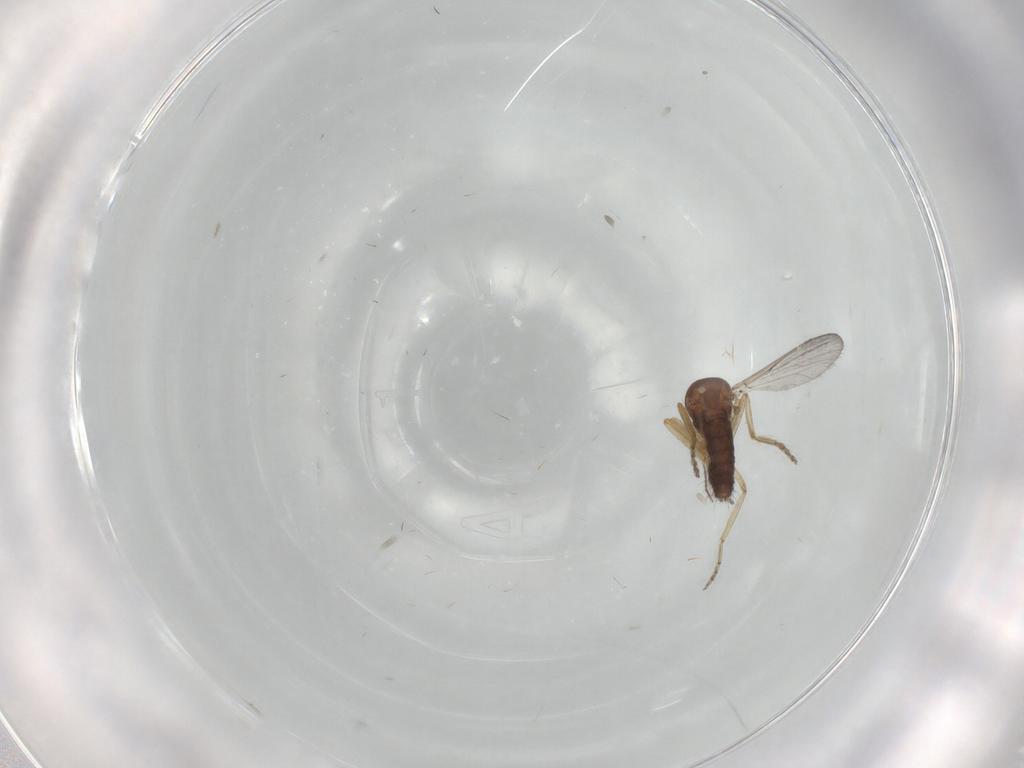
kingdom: Animalia
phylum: Arthropoda
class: Insecta
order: Diptera
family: Ceratopogonidae
